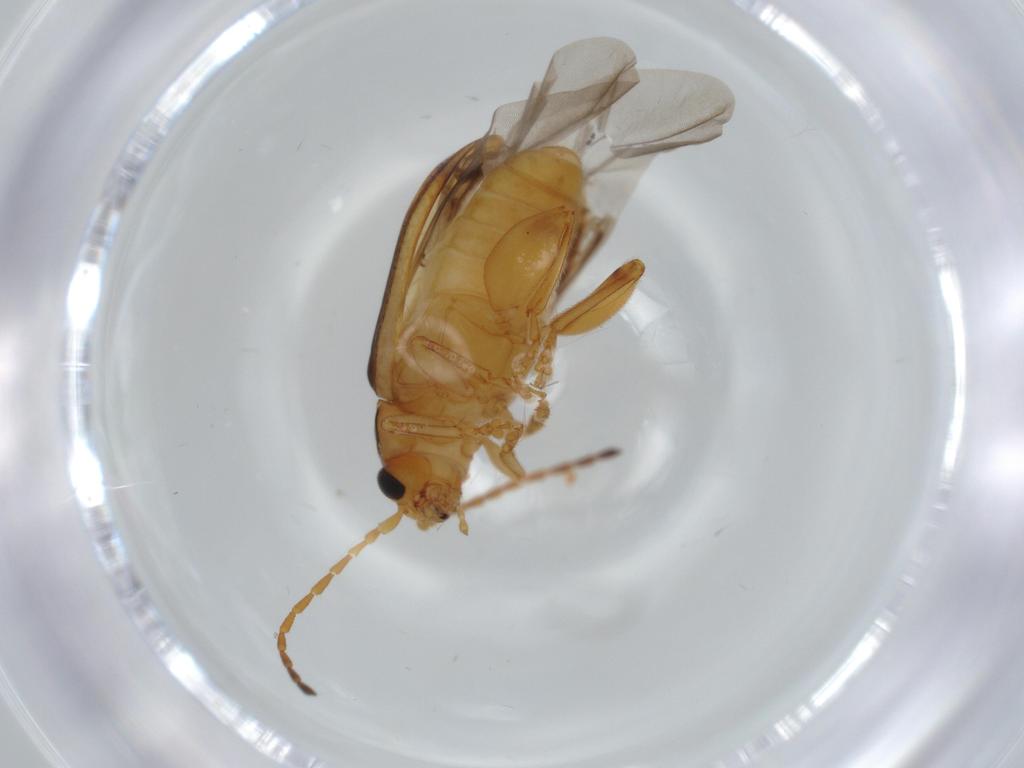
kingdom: Animalia
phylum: Arthropoda
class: Insecta
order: Coleoptera
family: Chrysomelidae
